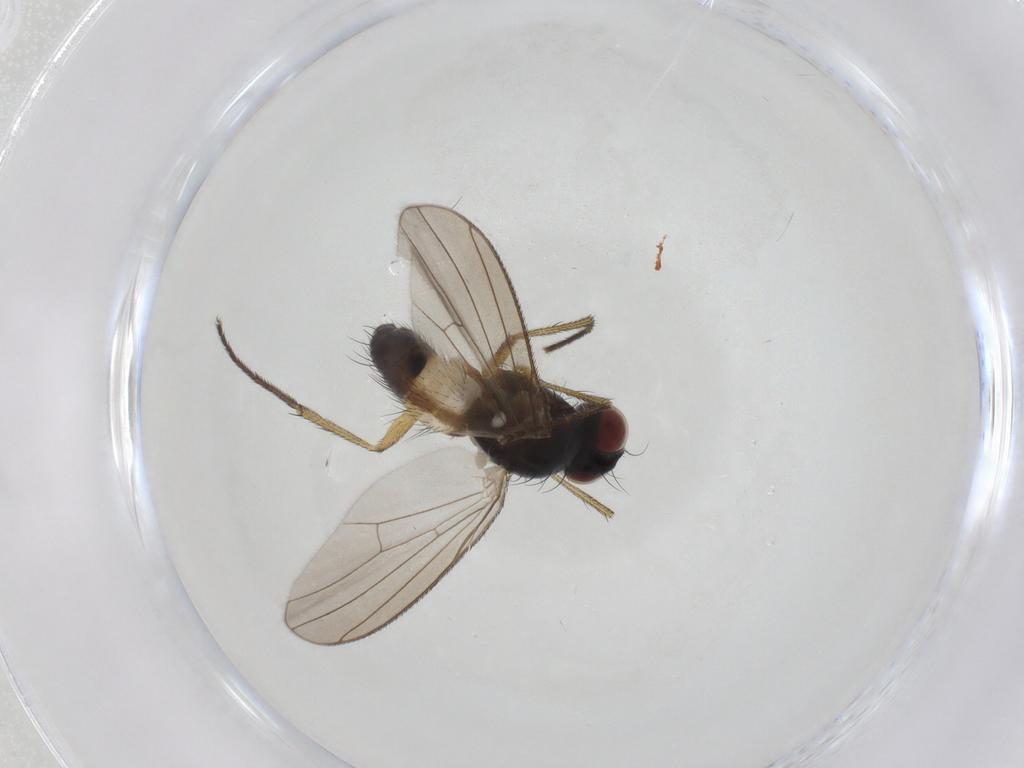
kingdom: Animalia
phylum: Arthropoda
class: Insecta
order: Diptera
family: Muscidae
